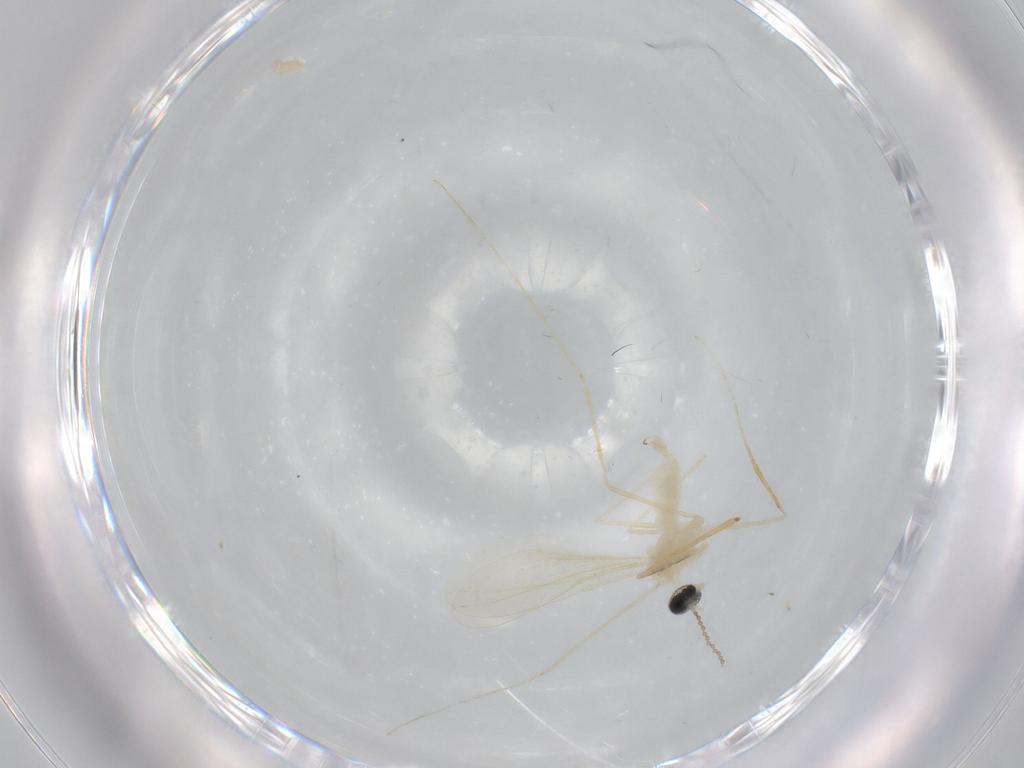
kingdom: Animalia
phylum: Arthropoda
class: Insecta
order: Diptera
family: Cecidomyiidae
